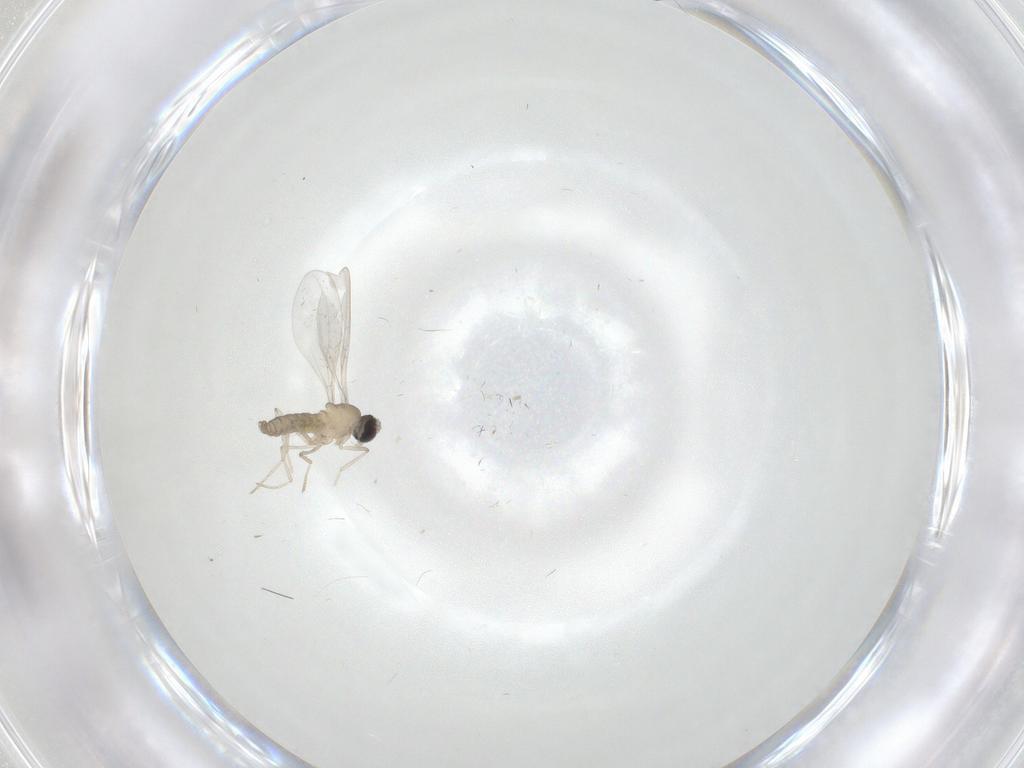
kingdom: Animalia
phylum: Arthropoda
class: Insecta
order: Diptera
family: Cecidomyiidae
